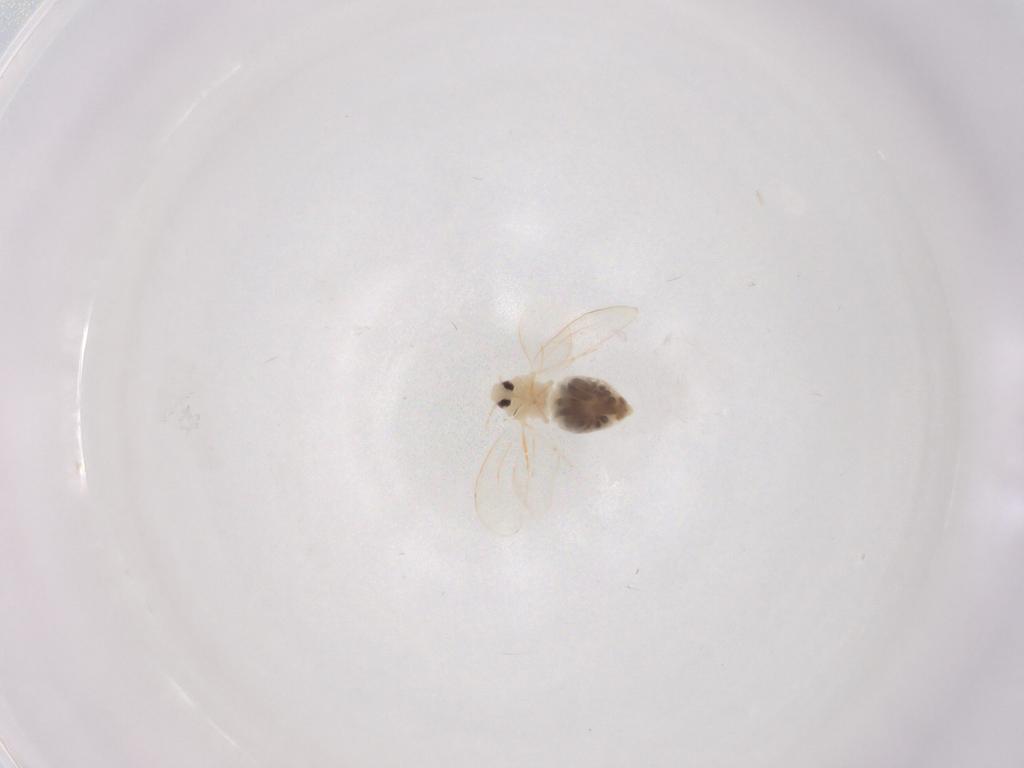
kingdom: Animalia
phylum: Arthropoda
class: Insecta
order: Hemiptera
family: Aleyrodidae
